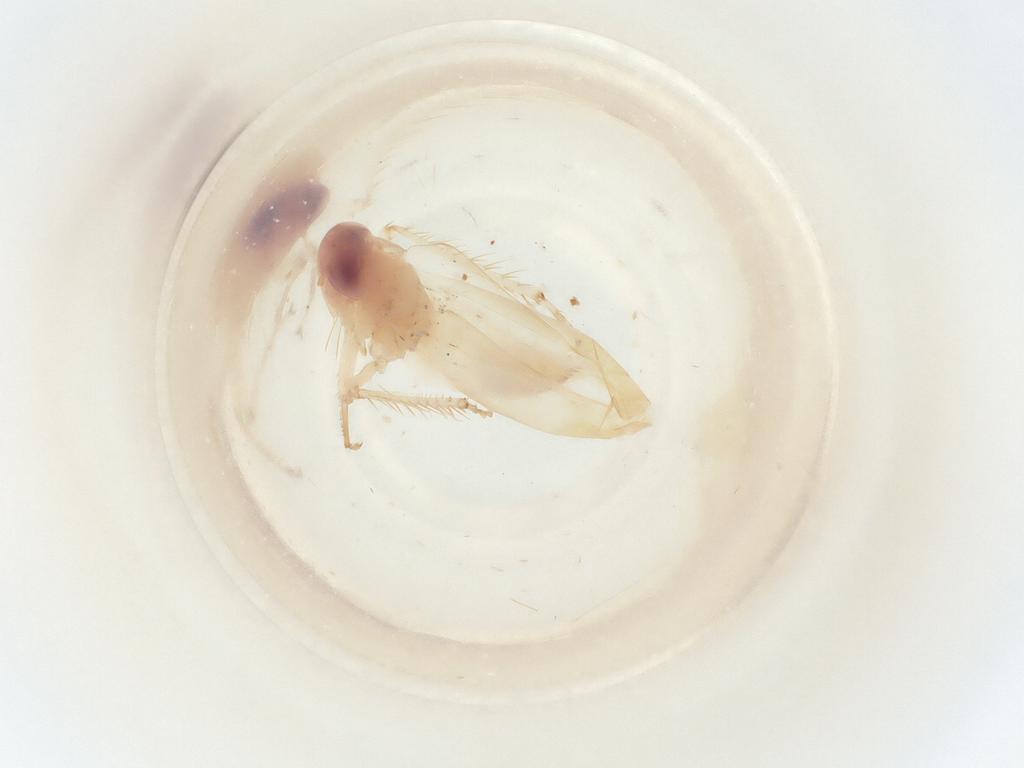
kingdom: Animalia
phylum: Arthropoda
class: Insecta
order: Hemiptera
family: Cicadellidae
